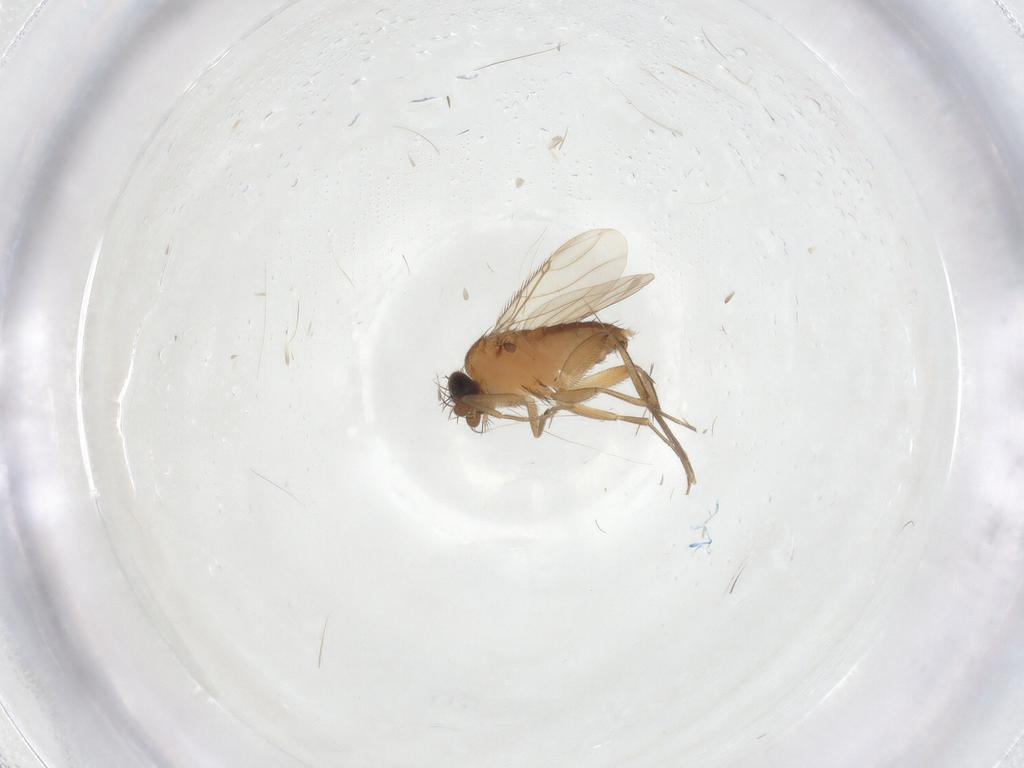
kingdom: Animalia
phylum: Arthropoda
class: Insecta
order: Diptera
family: Phoridae
